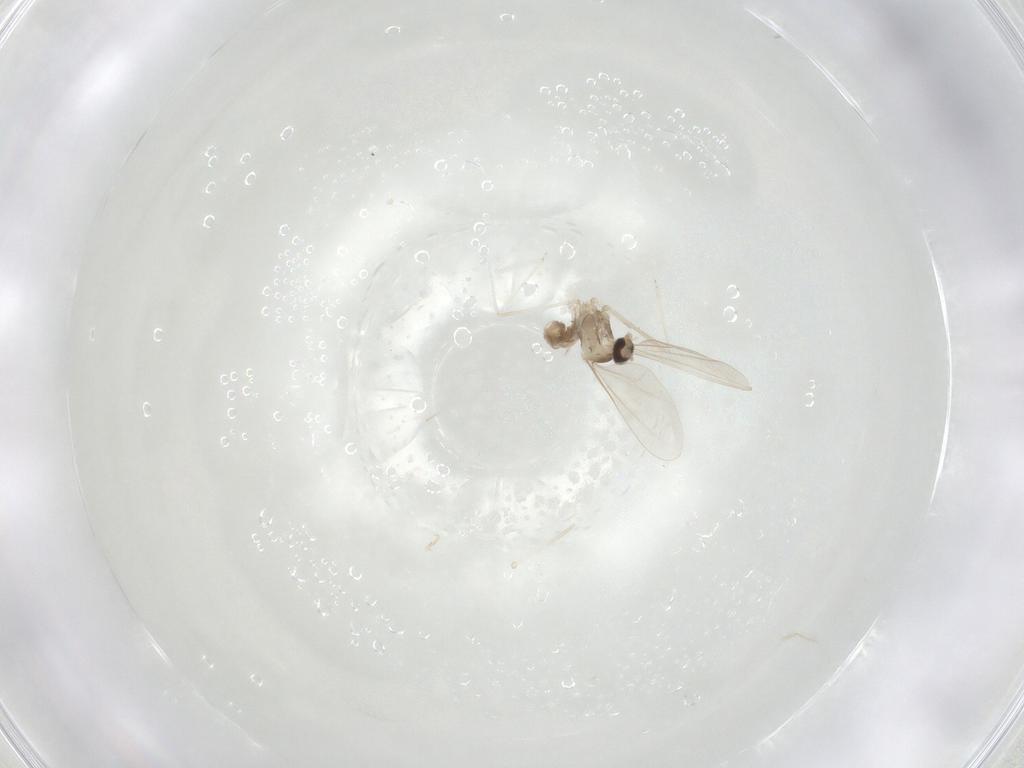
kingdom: Animalia
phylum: Arthropoda
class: Insecta
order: Diptera
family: Cecidomyiidae
